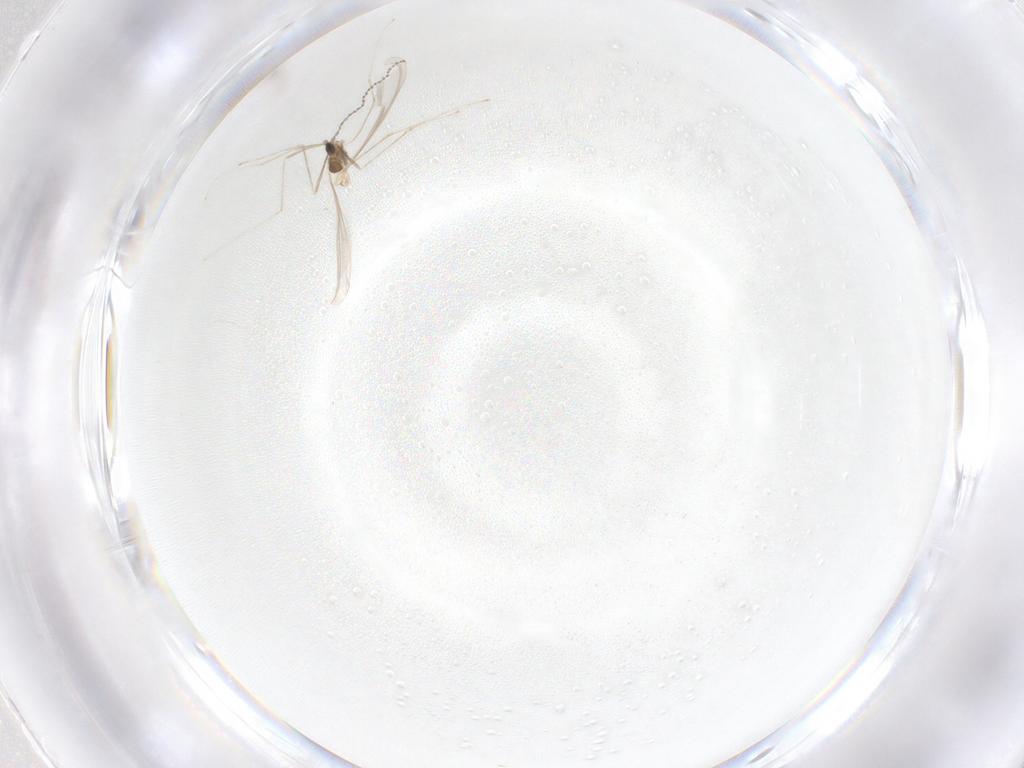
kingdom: Animalia
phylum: Arthropoda
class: Insecta
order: Diptera
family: Cecidomyiidae
